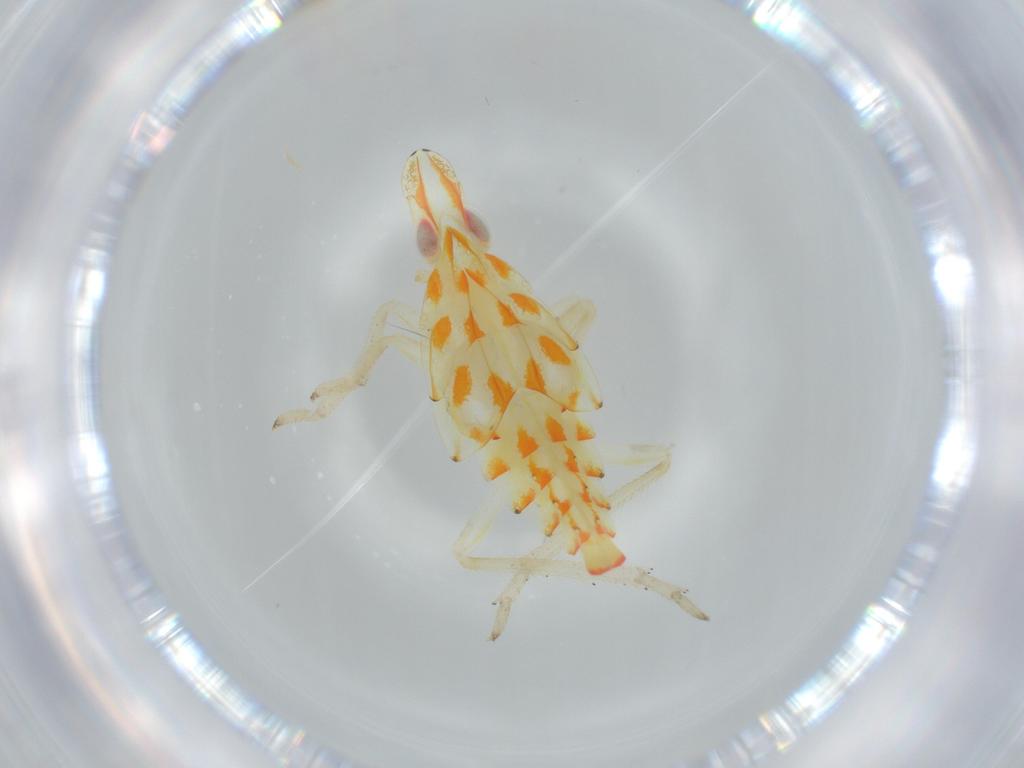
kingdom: Animalia
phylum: Arthropoda
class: Insecta
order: Hemiptera
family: Tropiduchidae
